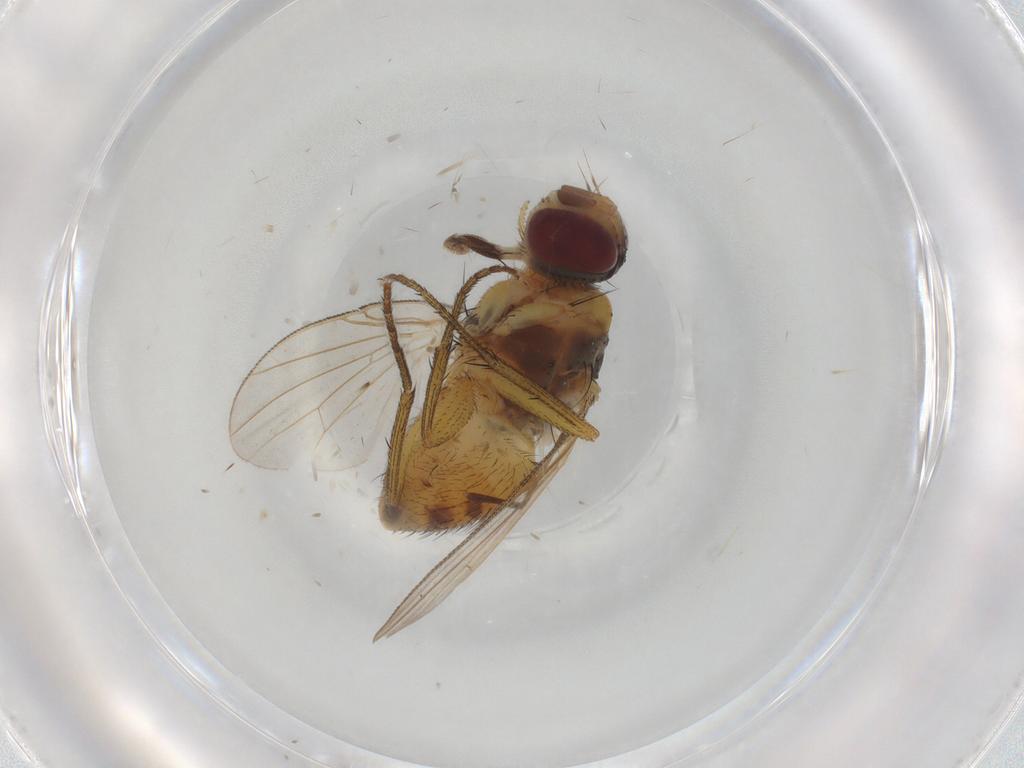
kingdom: Animalia
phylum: Arthropoda
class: Insecta
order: Diptera
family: Muscidae
